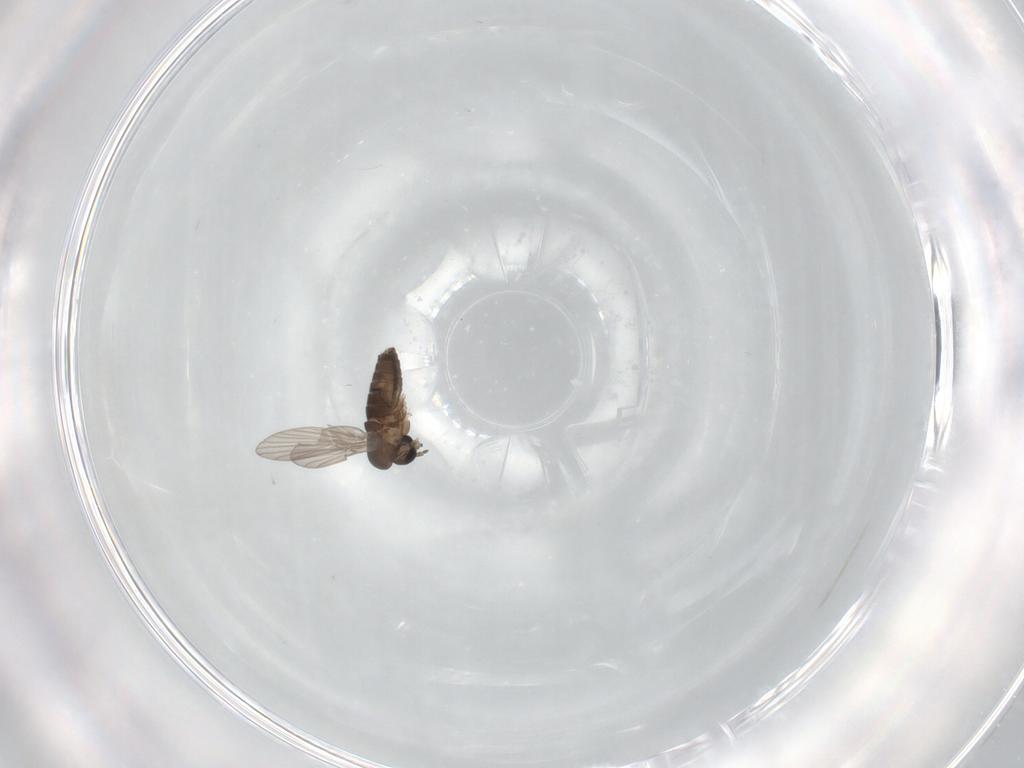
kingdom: Animalia
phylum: Arthropoda
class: Insecta
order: Diptera
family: Sciaridae
